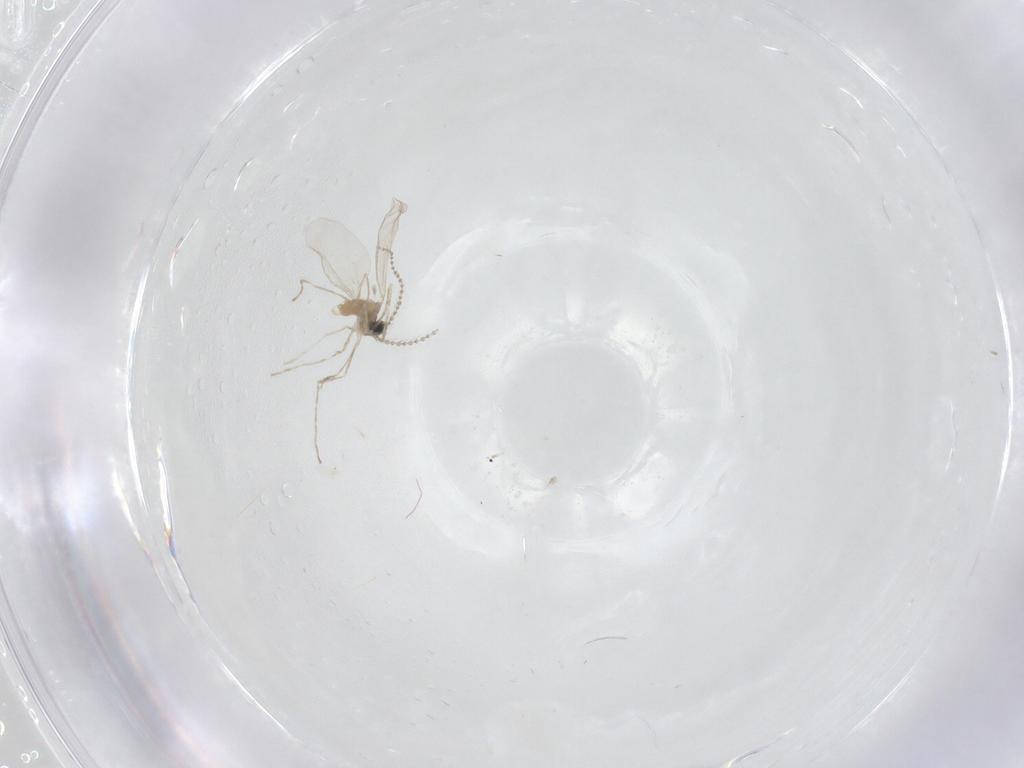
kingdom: Animalia
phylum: Arthropoda
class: Insecta
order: Diptera
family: Sciaridae
